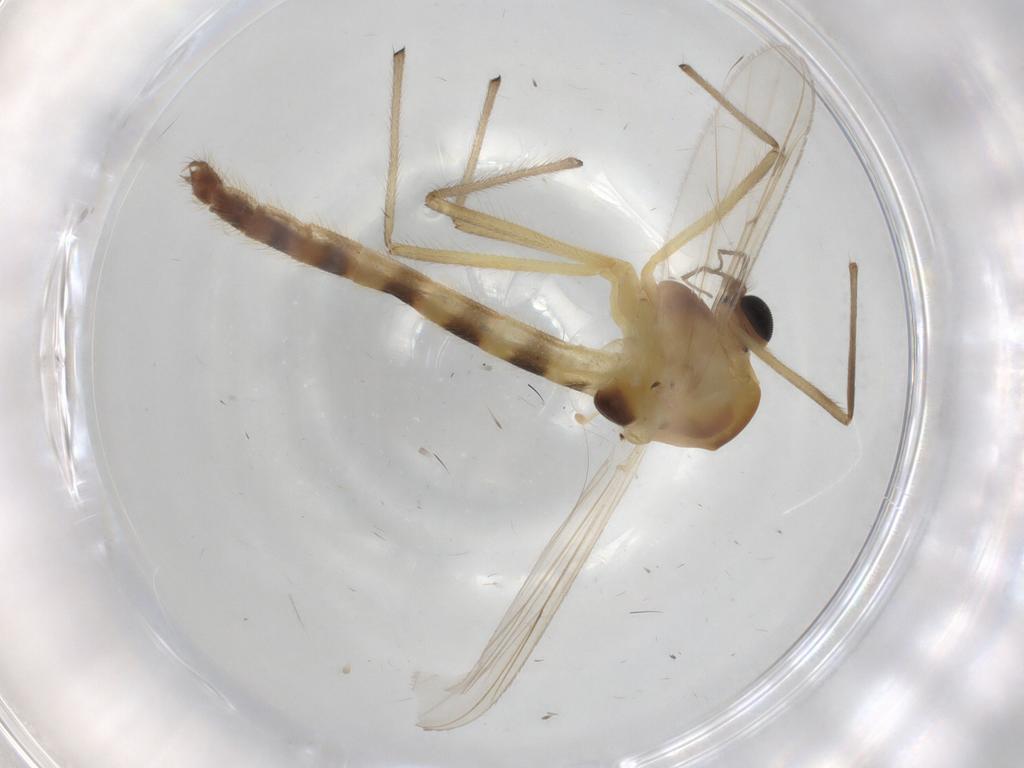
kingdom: Animalia
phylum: Arthropoda
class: Insecta
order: Diptera
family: Chironomidae
